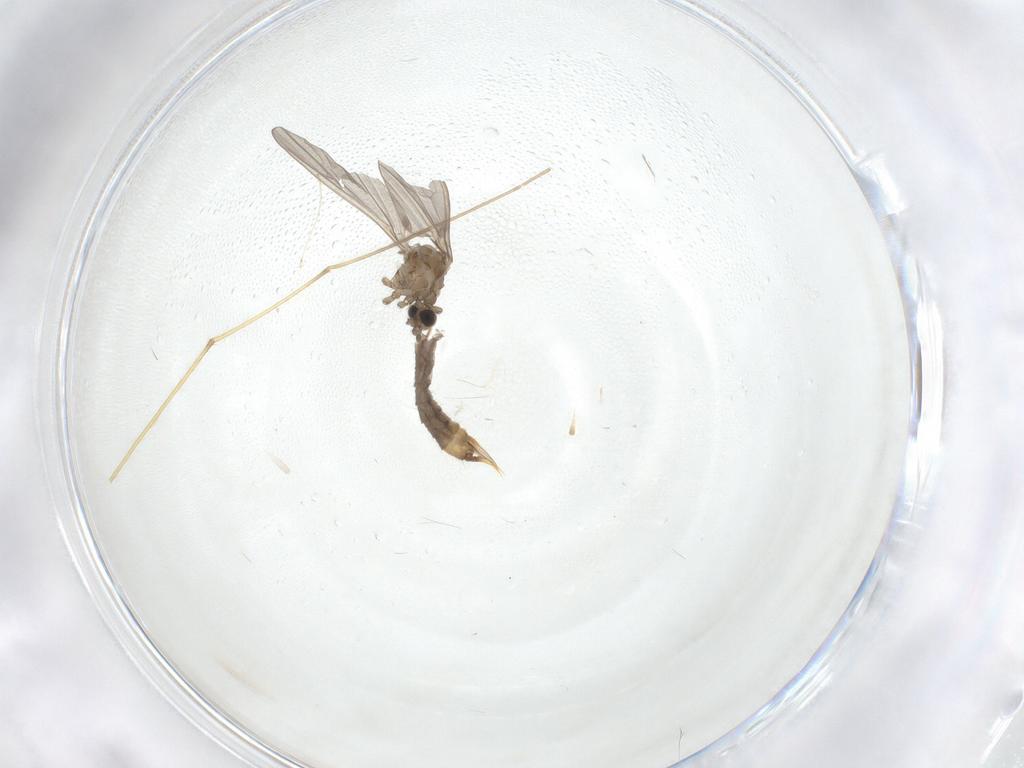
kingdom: Animalia
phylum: Arthropoda
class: Insecta
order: Diptera
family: Limoniidae
